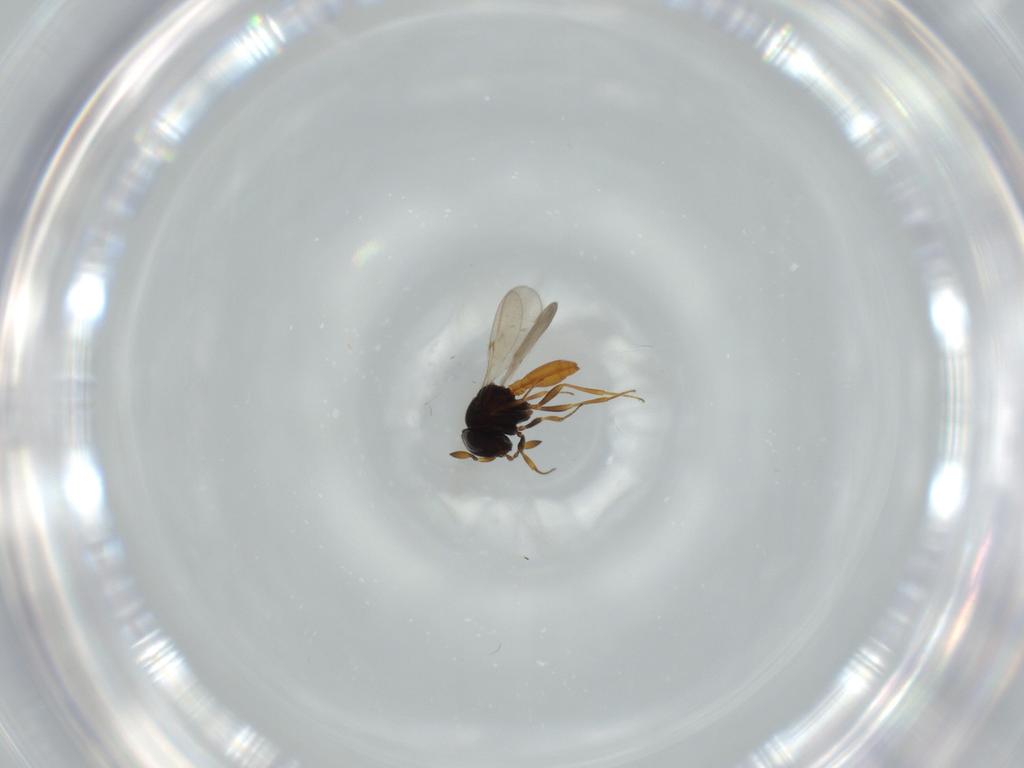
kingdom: Animalia
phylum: Arthropoda
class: Insecta
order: Hymenoptera
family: Scelionidae
